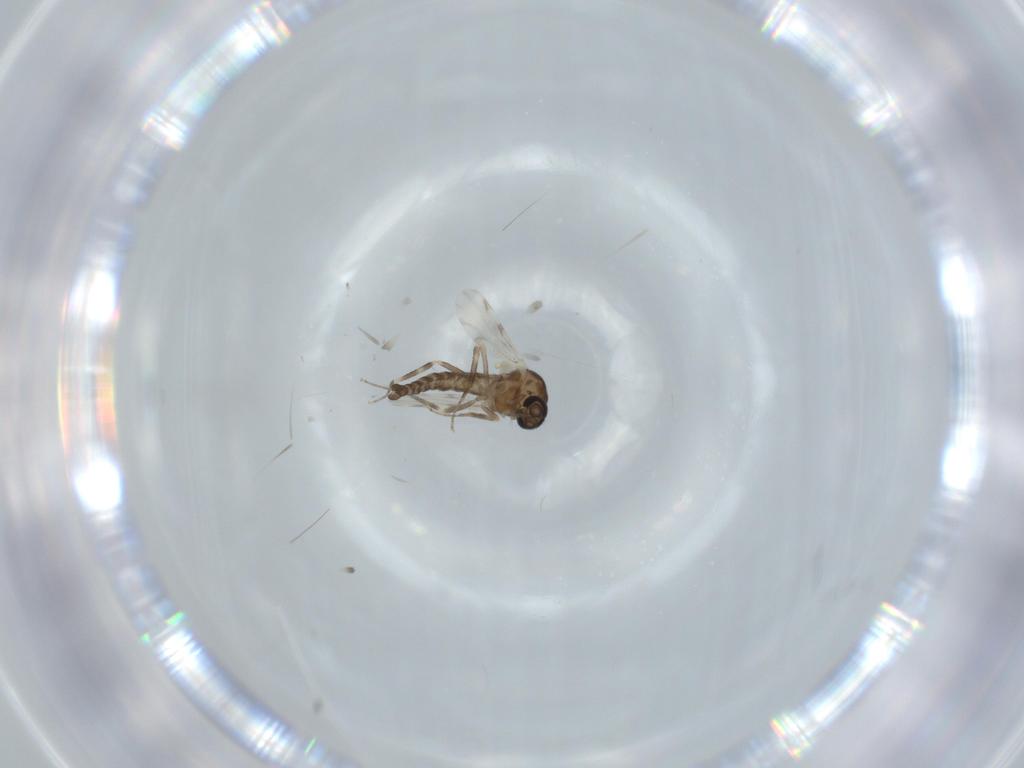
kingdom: Animalia
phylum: Arthropoda
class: Insecta
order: Diptera
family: Ceratopogonidae
